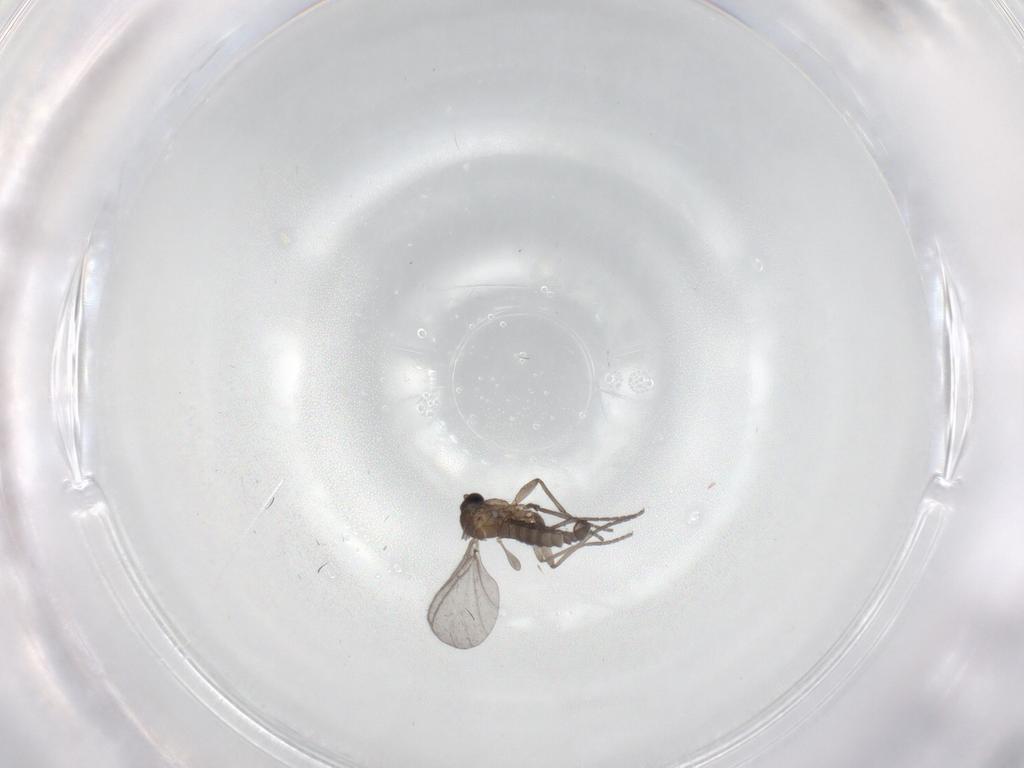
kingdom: Animalia
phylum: Arthropoda
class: Insecta
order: Diptera
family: Sciaridae
